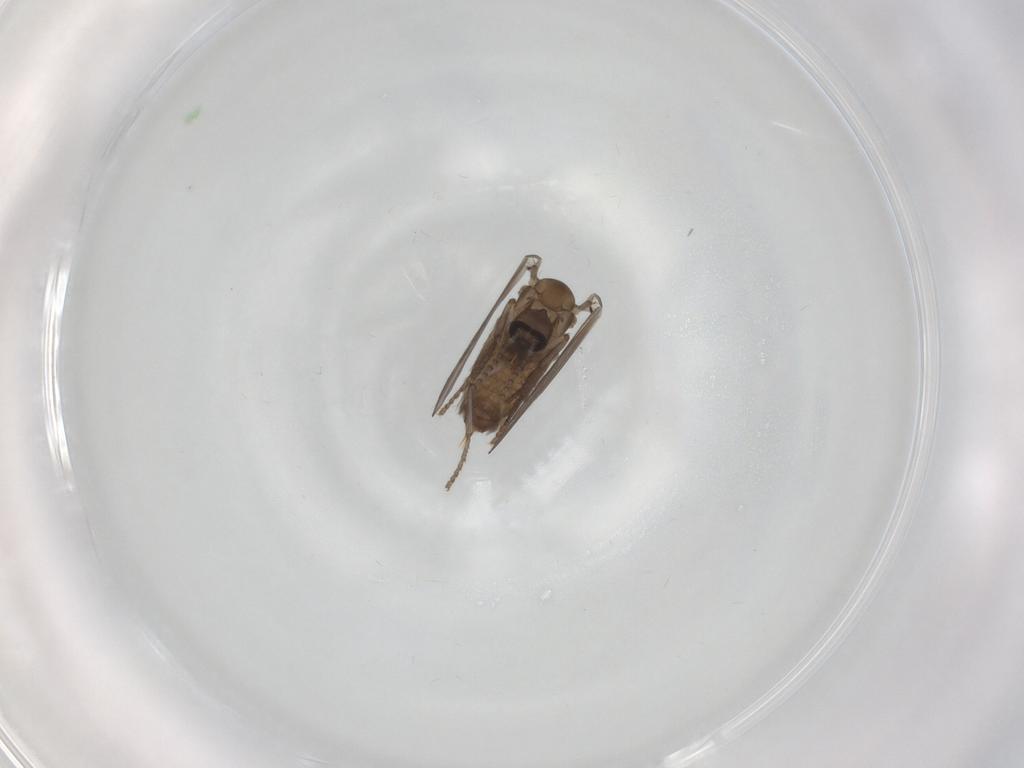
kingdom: Animalia
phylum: Arthropoda
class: Insecta
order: Diptera
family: Psychodidae
